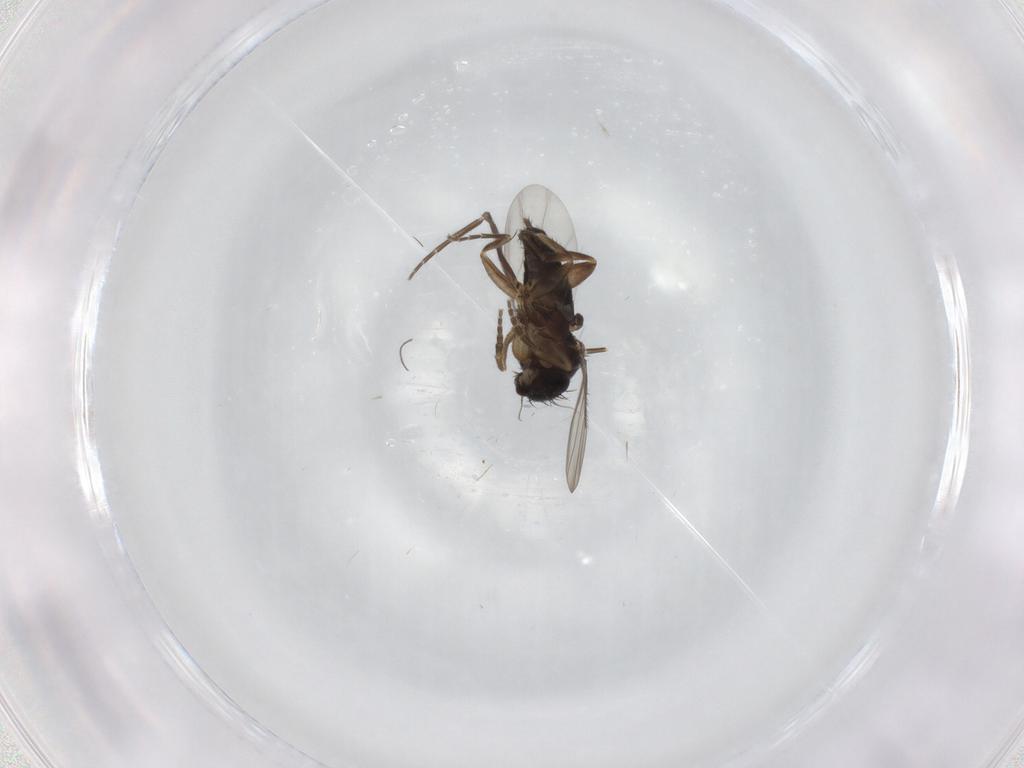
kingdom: Animalia
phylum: Arthropoda
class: Insecta
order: Diptera
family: Phoridae
